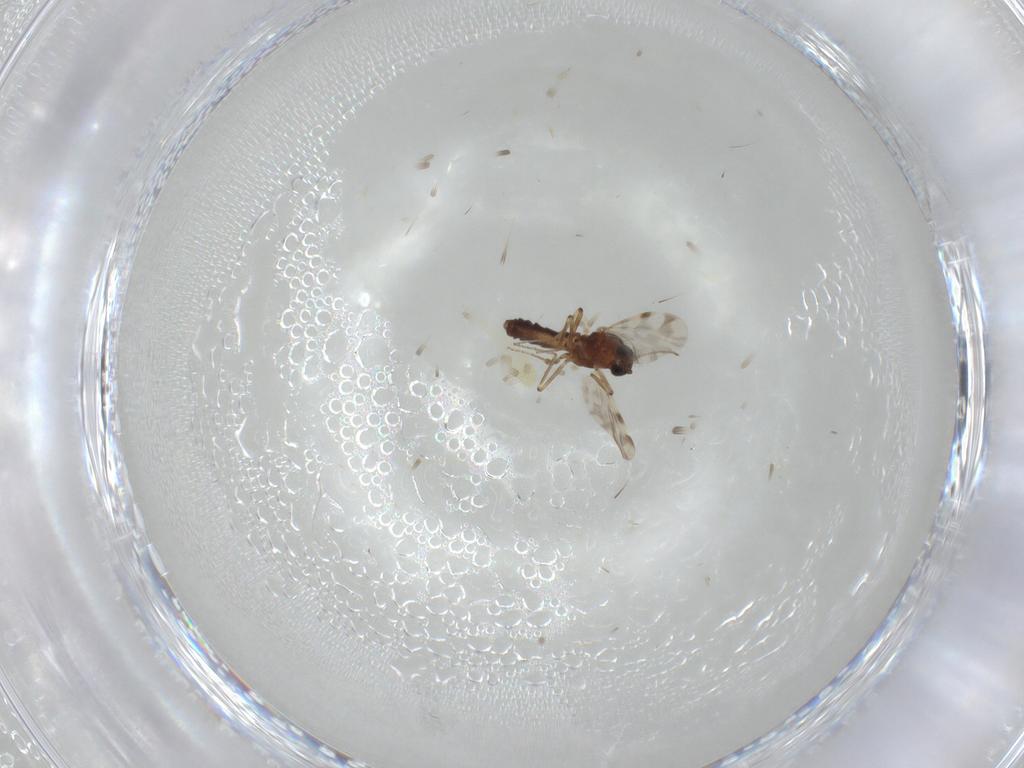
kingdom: Animalia
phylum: Arthropoda
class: Insecta
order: Diptera
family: Ceratopogonidae
